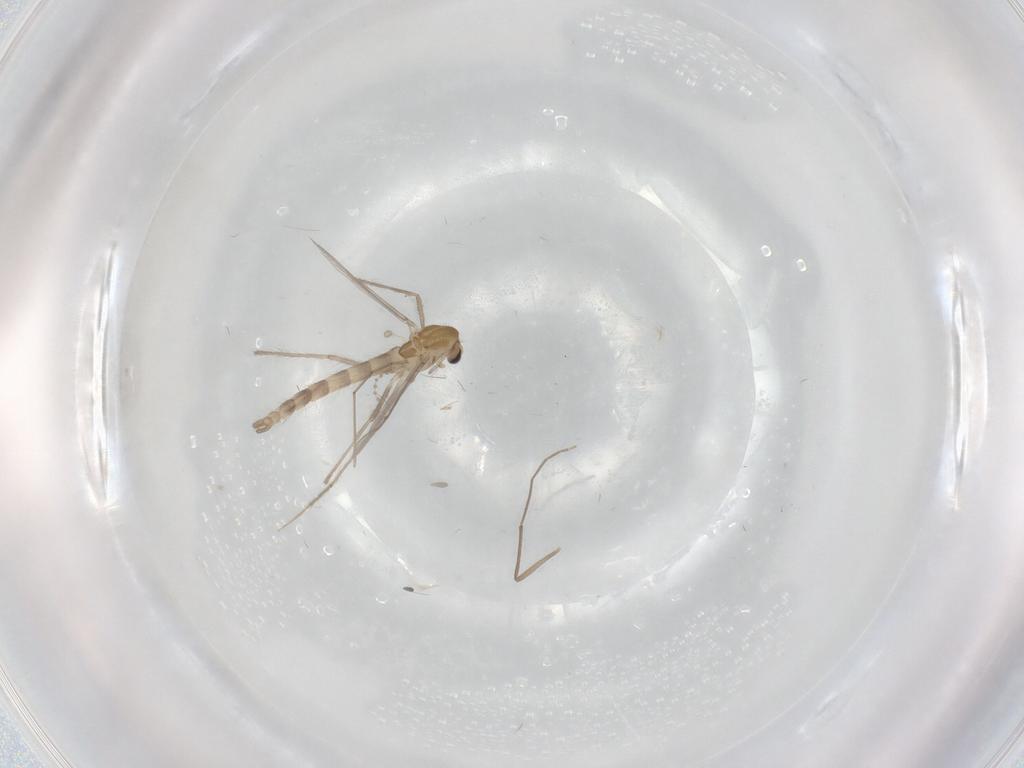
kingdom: Animalia
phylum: Arthropoda
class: Insecta
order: Diptera
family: Chironomidae
